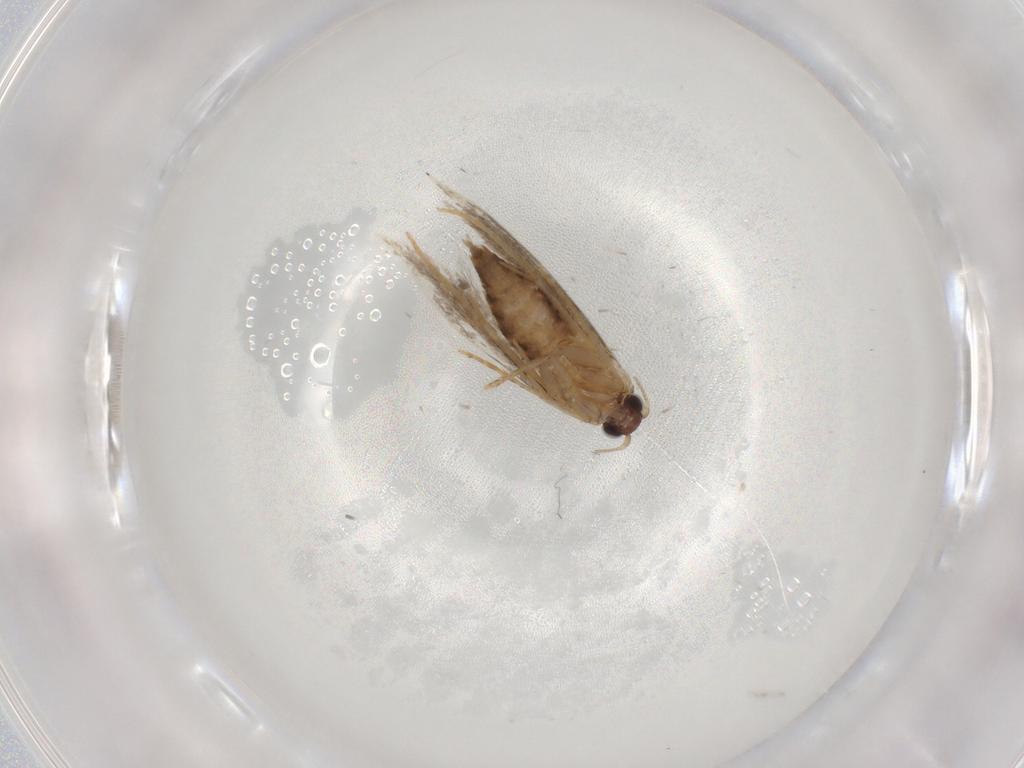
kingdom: Animalia
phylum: Arthropoda
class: Insecta
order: Lepidoptera
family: Tineidae
